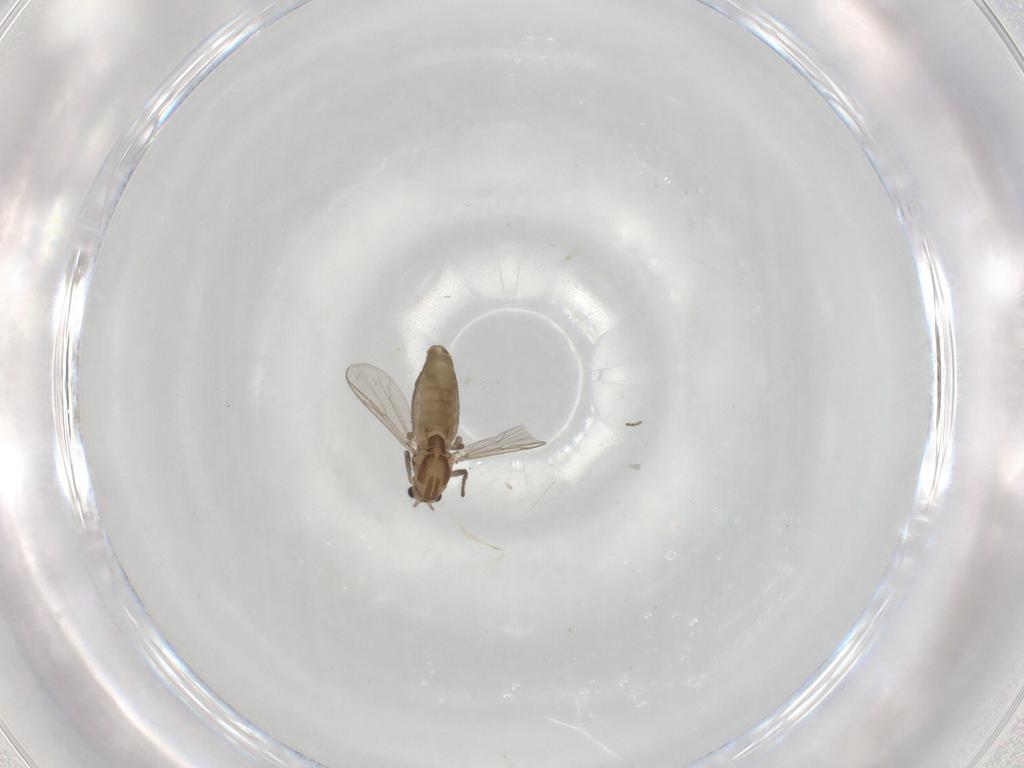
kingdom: Animalia
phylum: Arthropoda
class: Insecta
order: Diptera
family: Chironomidae
